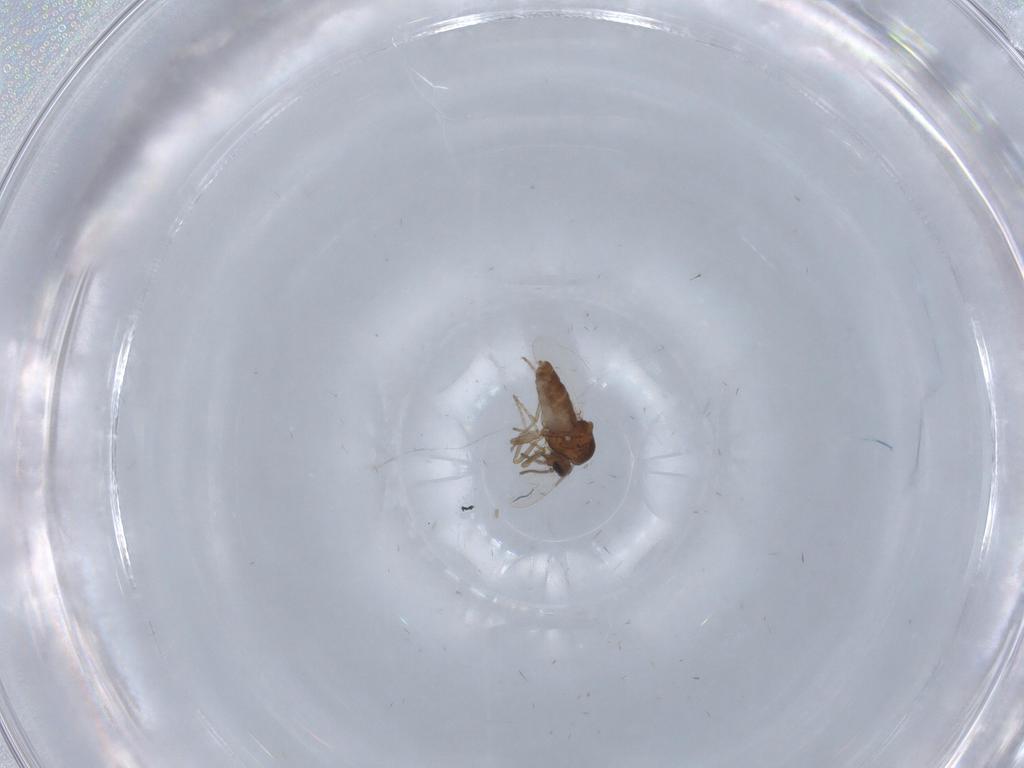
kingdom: Animalia
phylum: Arthropoda
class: Insecta
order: Diptera
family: Ceratopogonidae
